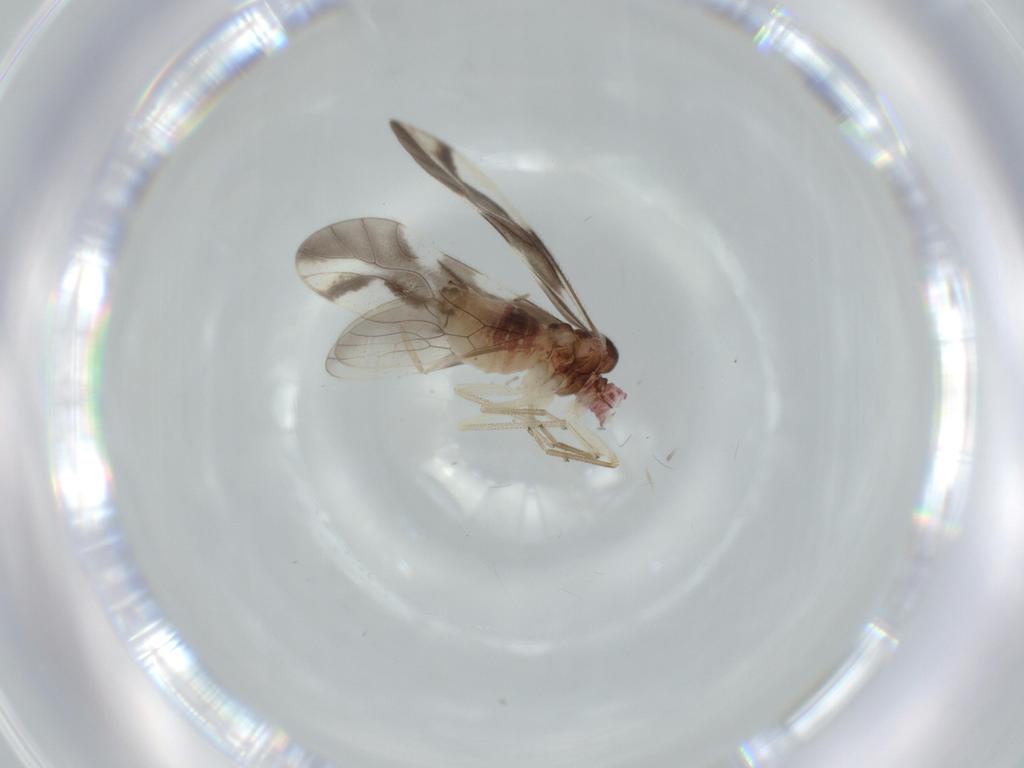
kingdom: Animalia
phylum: Arthropoda
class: Insecta
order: Psocodea
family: Caeciliusidae
